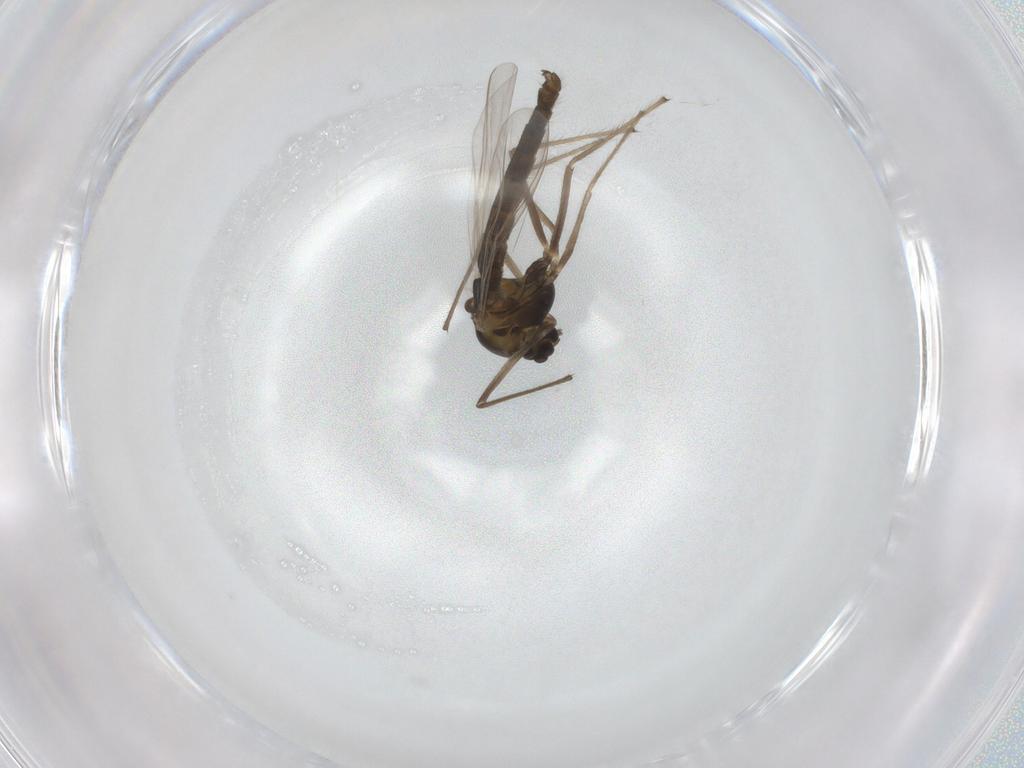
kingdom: Animalia
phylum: Arthropoda
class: Insecta
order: Diptera
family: Chironomidae
